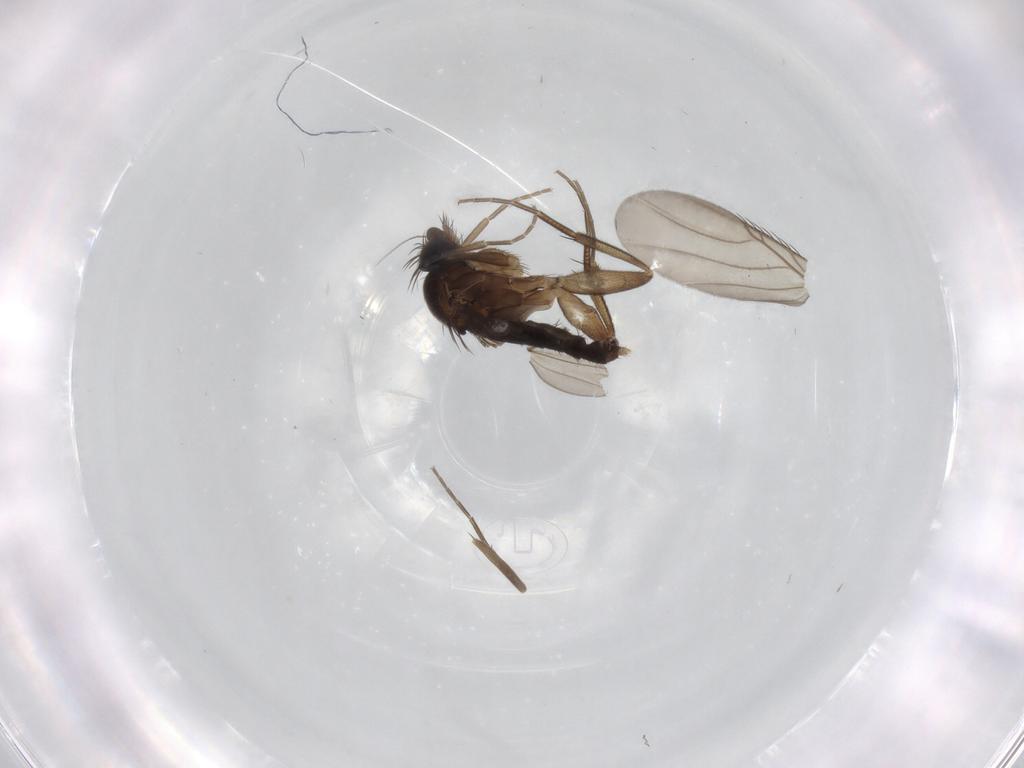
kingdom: Animalia
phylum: Arthropoda
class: Insecta
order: Diptera
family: Phoridae
